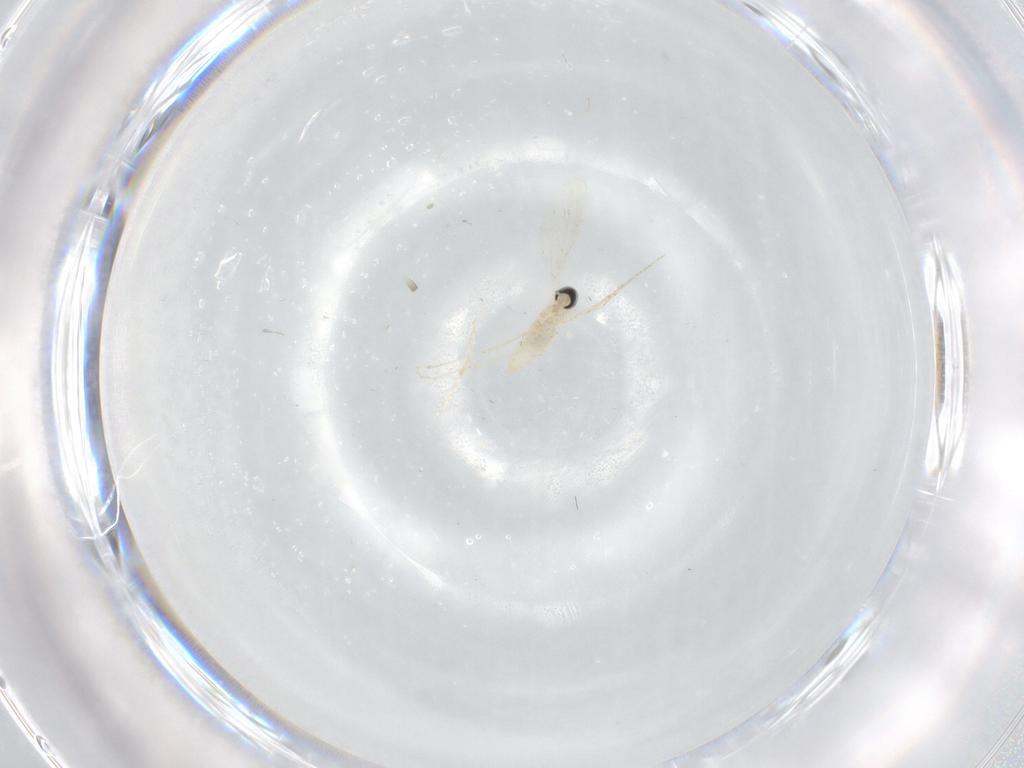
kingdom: Animalia
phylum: Arthropoda
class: Insecta
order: Diptera
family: Cecidomyiidae
